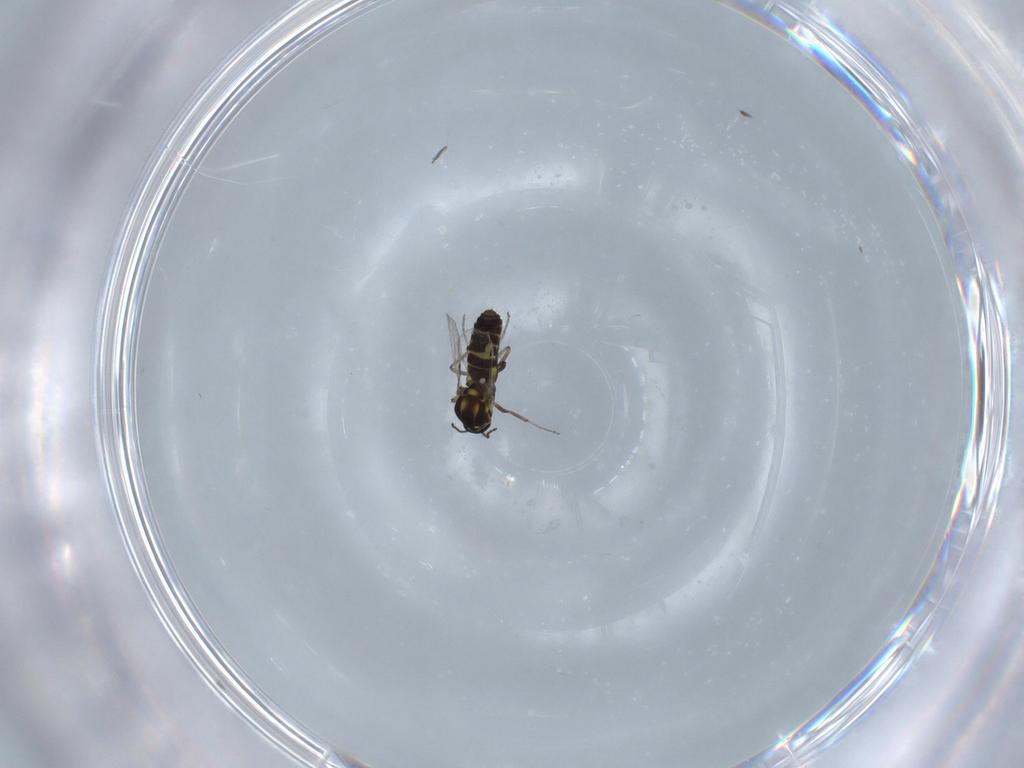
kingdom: Animalia
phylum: Arthropoda
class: Insecta
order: Diptera
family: Ceratopogonidae
